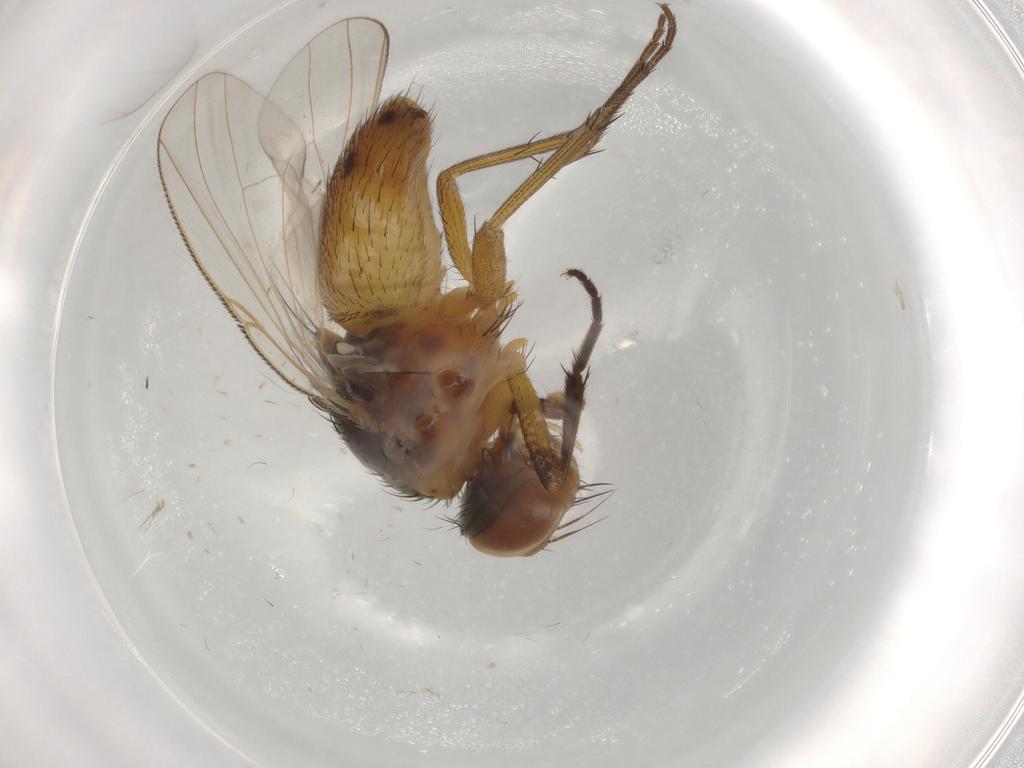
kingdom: Animalia
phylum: Arthropoda
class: Insecta
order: Diptera
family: Muscidae
